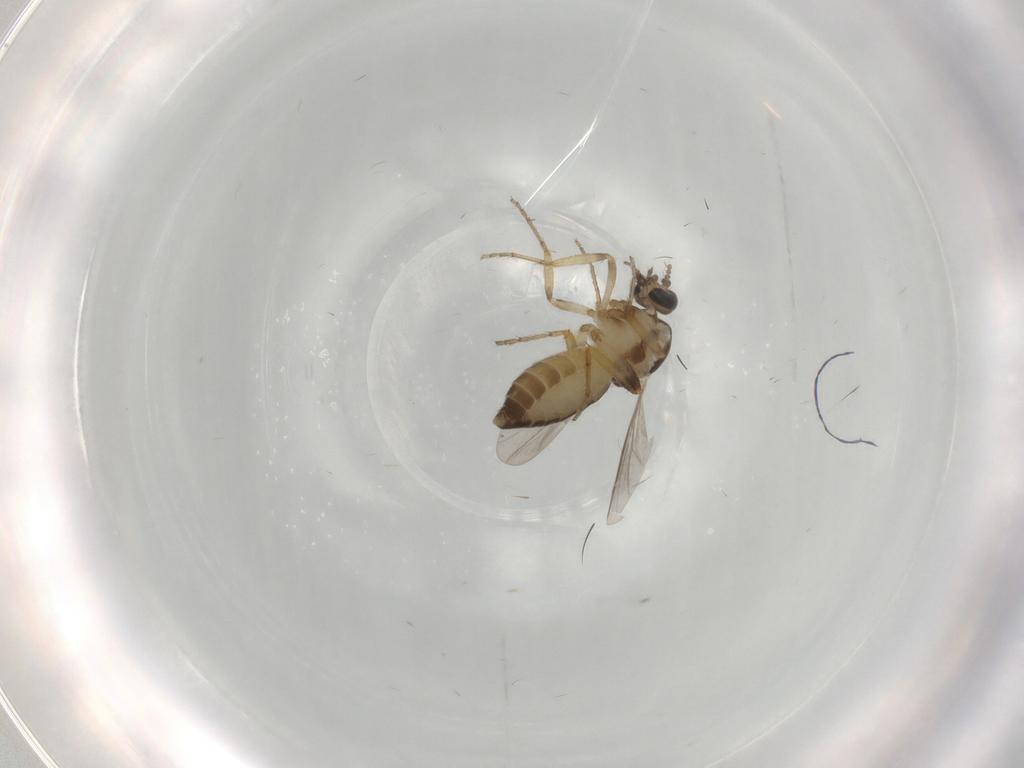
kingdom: Animalia
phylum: Arthropoda
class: Insecta
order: Diptera
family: Ceratopogonidae
